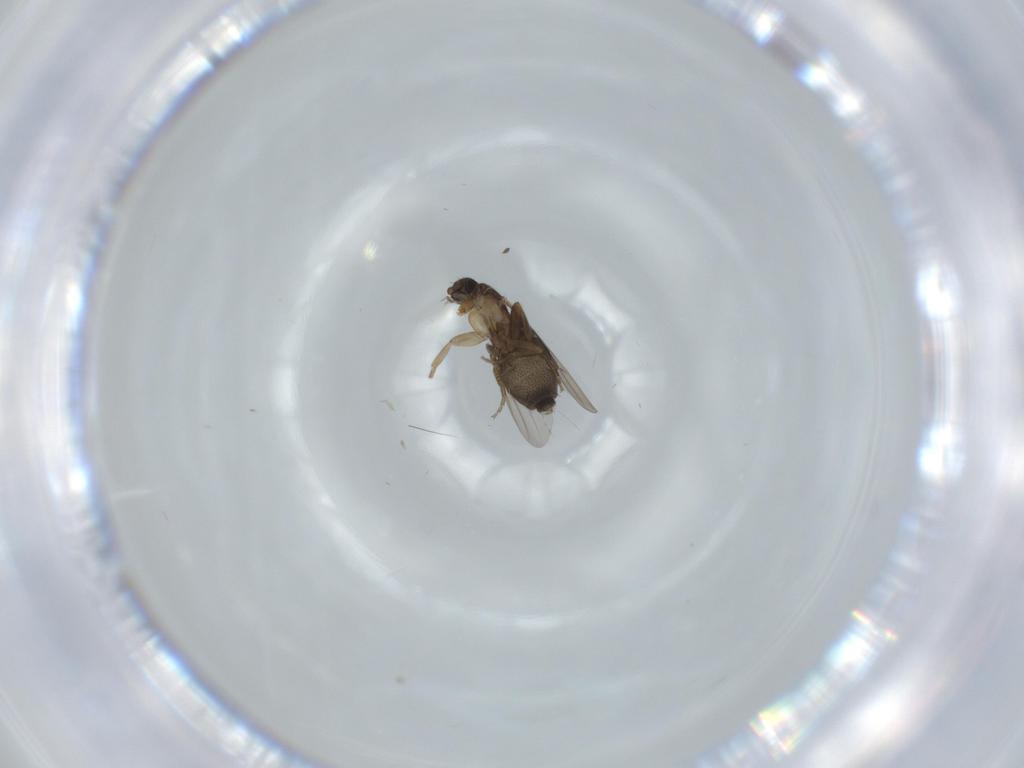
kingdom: Animalia
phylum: Arthropoda
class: Insecta
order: Diptera
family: Phoridae
